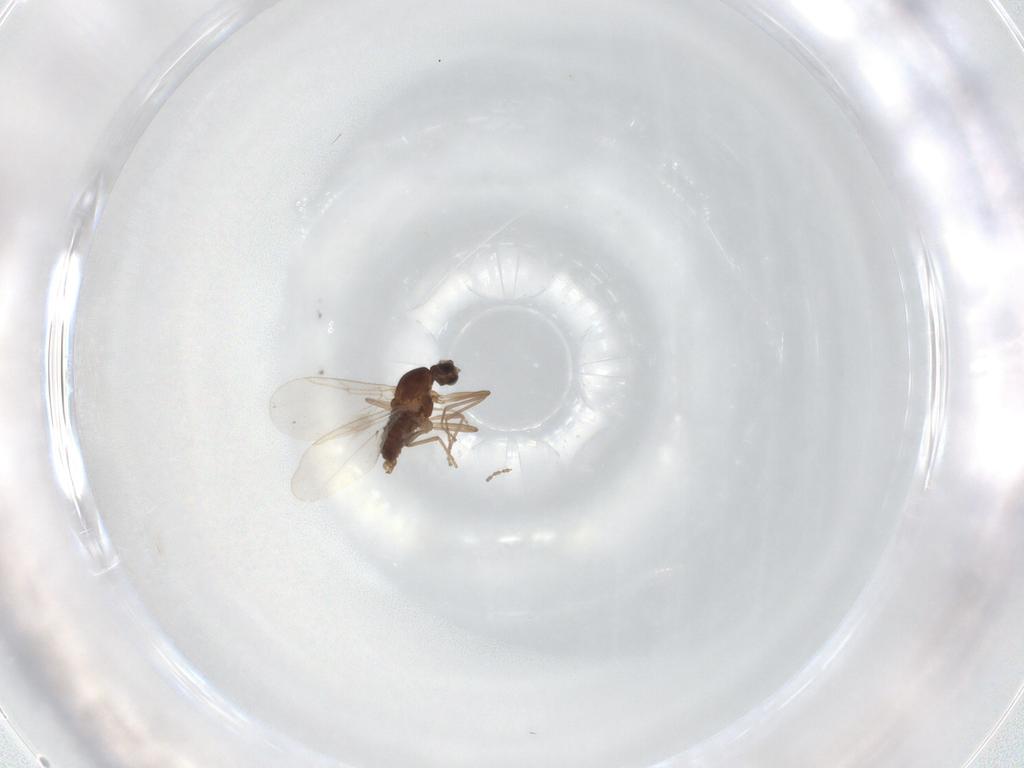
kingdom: Animalia
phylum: Arthropoda
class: Insecta
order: Diptera
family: Cecidomyiidae
